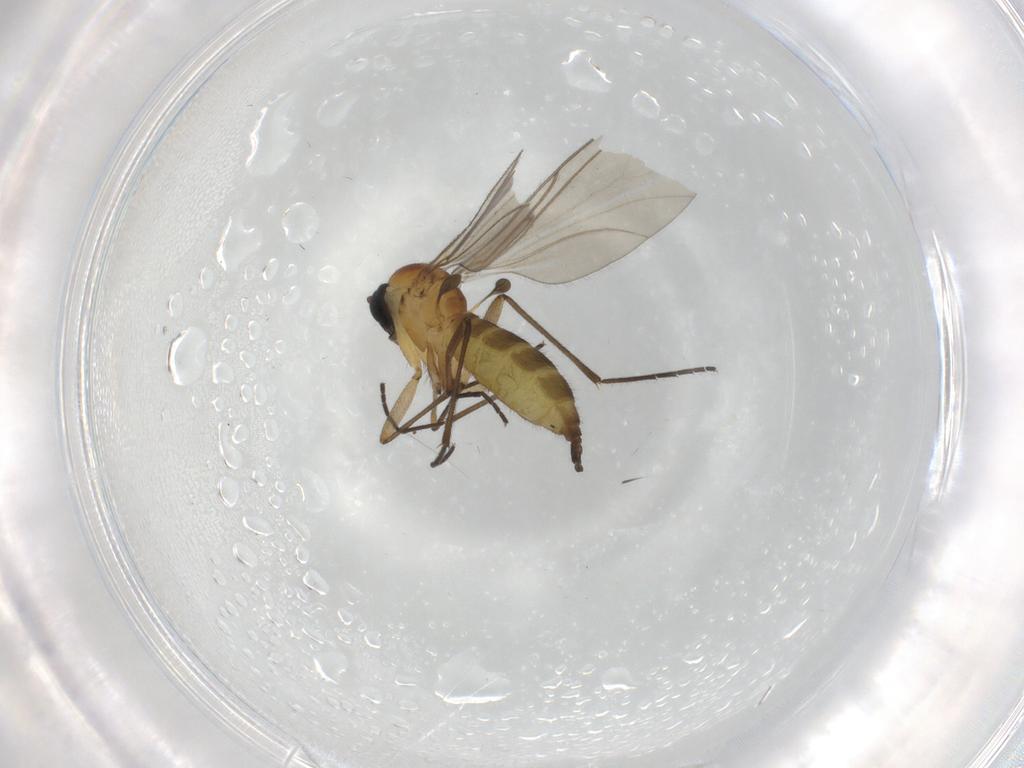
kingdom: Animalia
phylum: Arthropoda
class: Insecta
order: Diptera
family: Sciaridae
